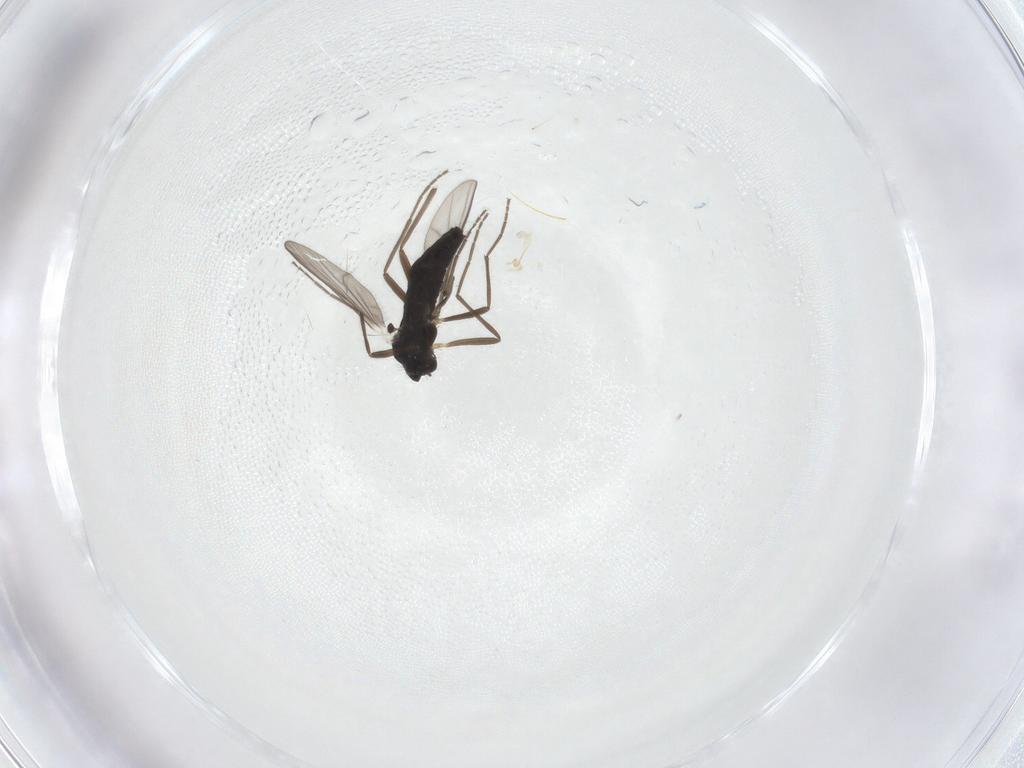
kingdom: Animalia
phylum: Arthropoda
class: Insecta
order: Diptera
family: Chironomidae
